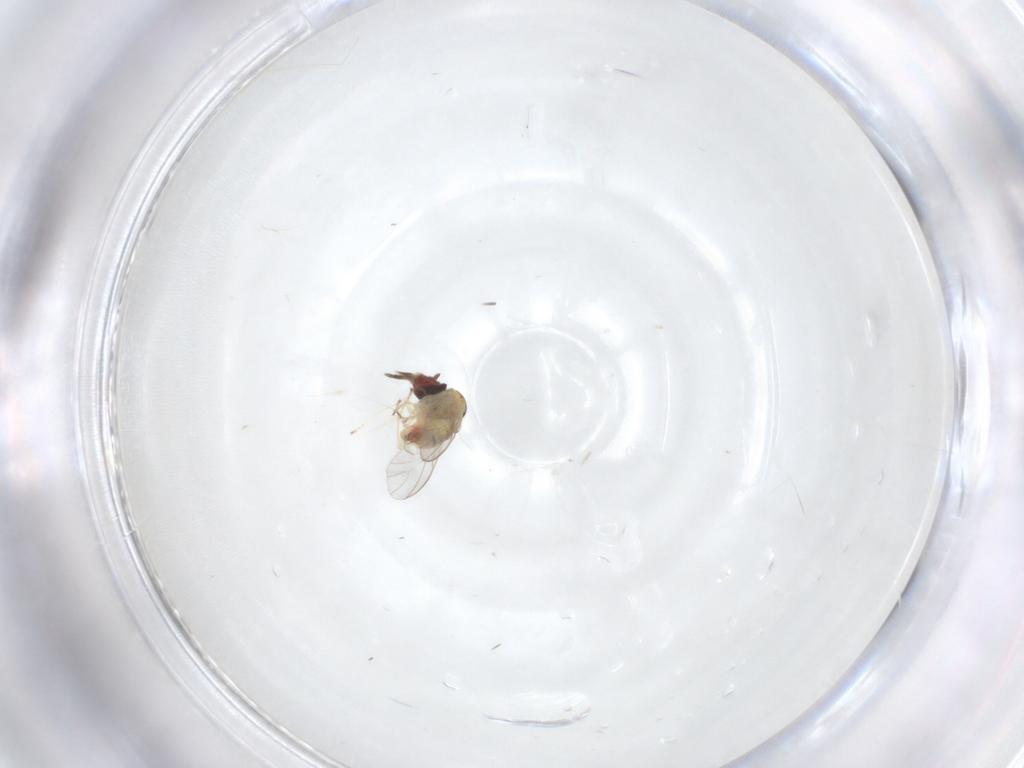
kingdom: Animalia
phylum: Arthropoda
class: Insecta
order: Diptera
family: Bombyliidae
